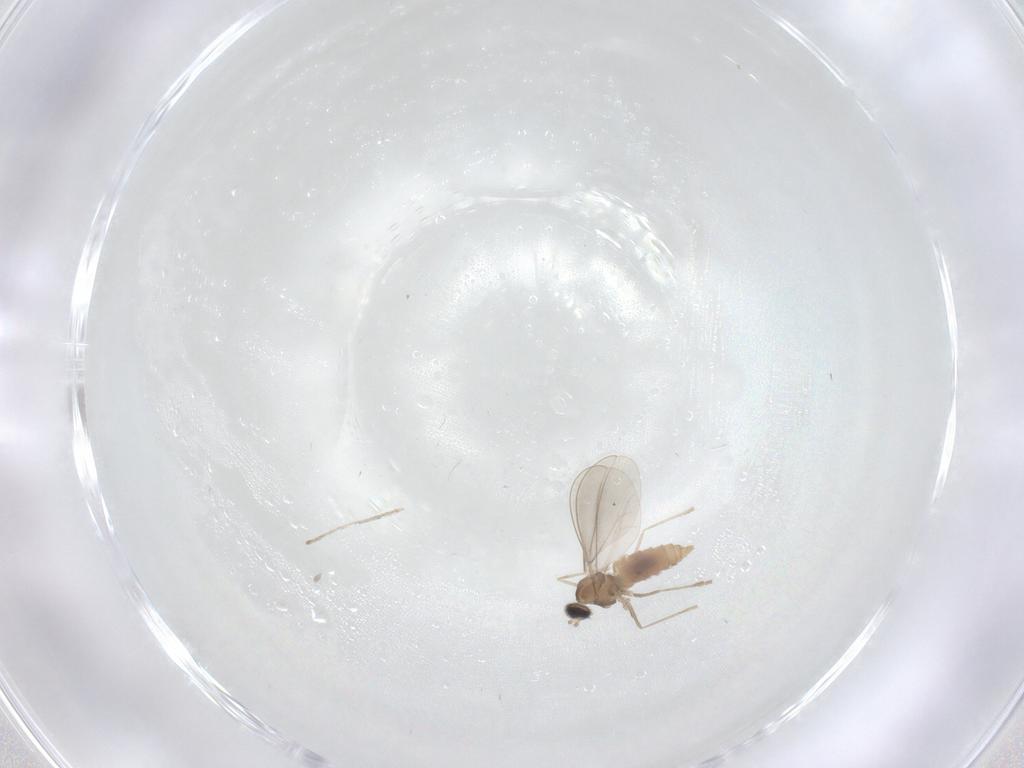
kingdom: Animalia
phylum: Arthropoda
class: Insecta
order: Diptera
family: Cecidomyiidae
